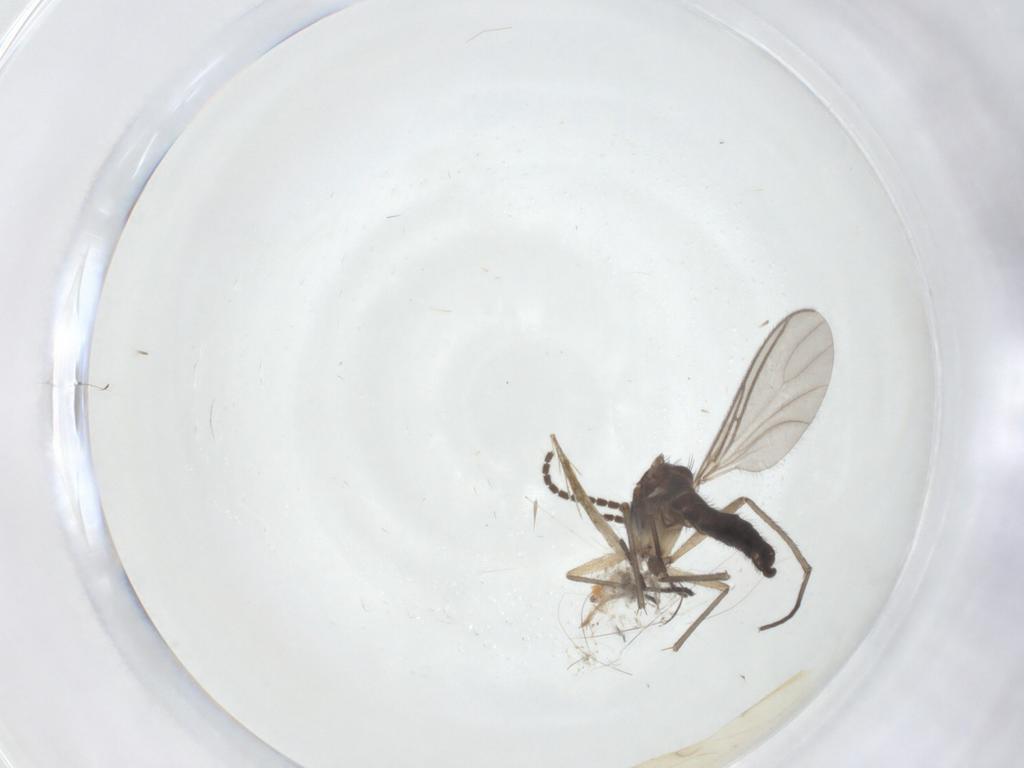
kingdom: Animalia
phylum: Arthropoda
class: Insecta
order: Diptera
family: Sciaridae
